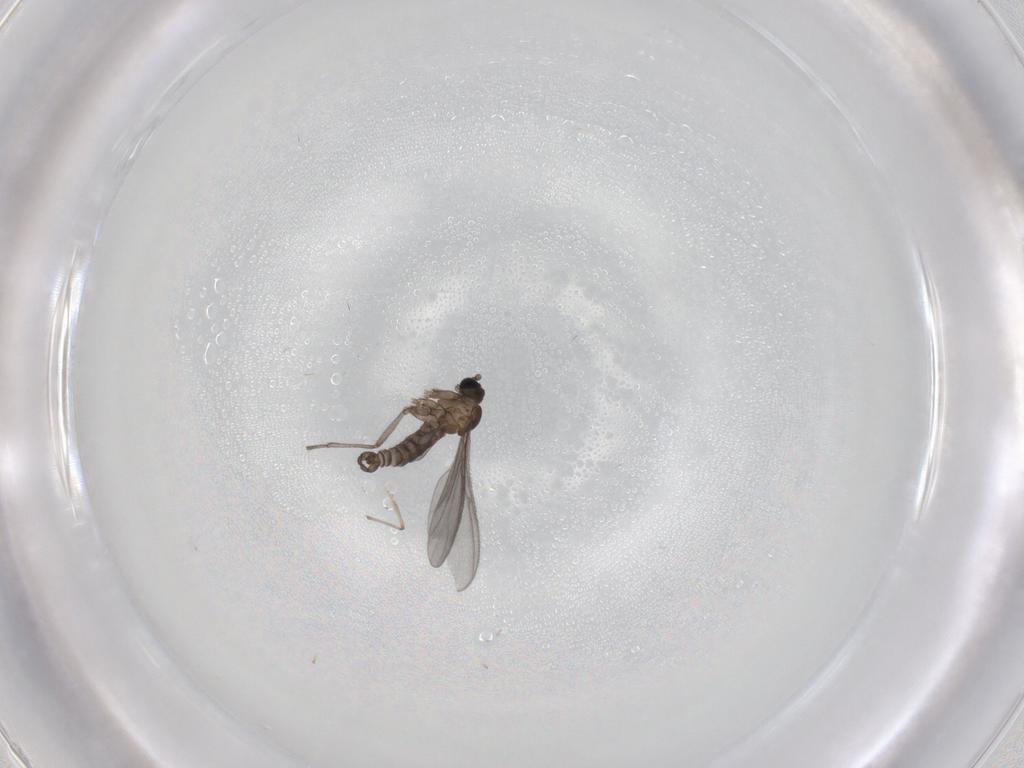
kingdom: Animalia
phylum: Arthropoda
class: Insecta
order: Diptera
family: Sciaridae
